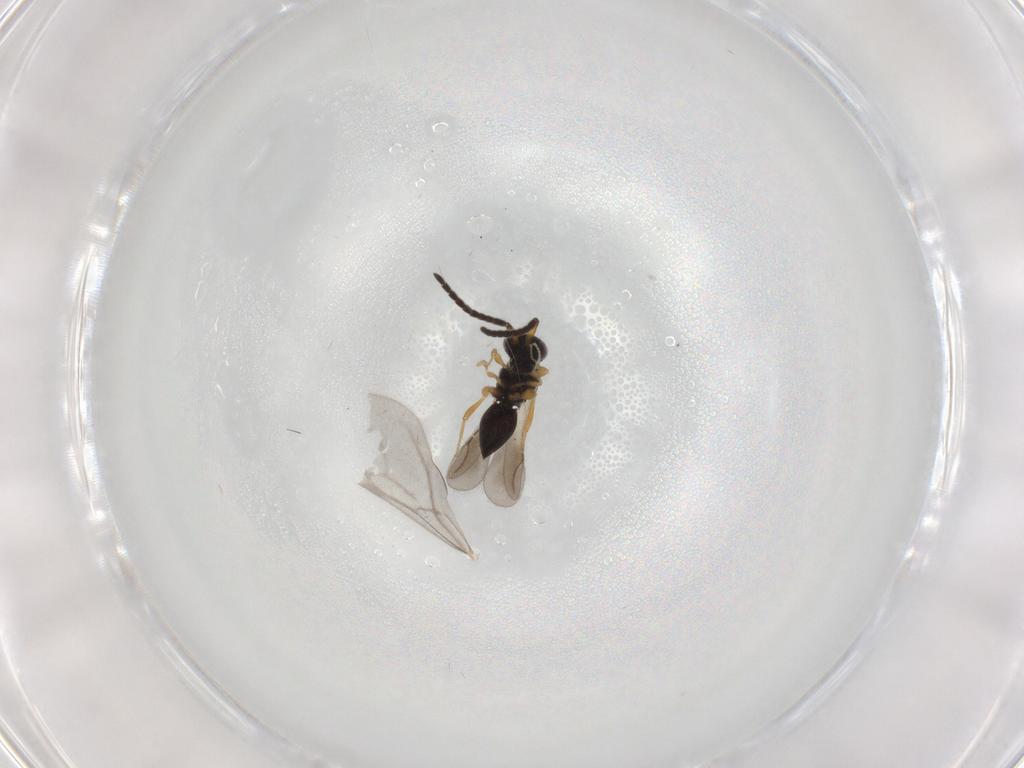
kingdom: Animalia
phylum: Arthropoda
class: Insecta
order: Hymenoptera
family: Formicidae
